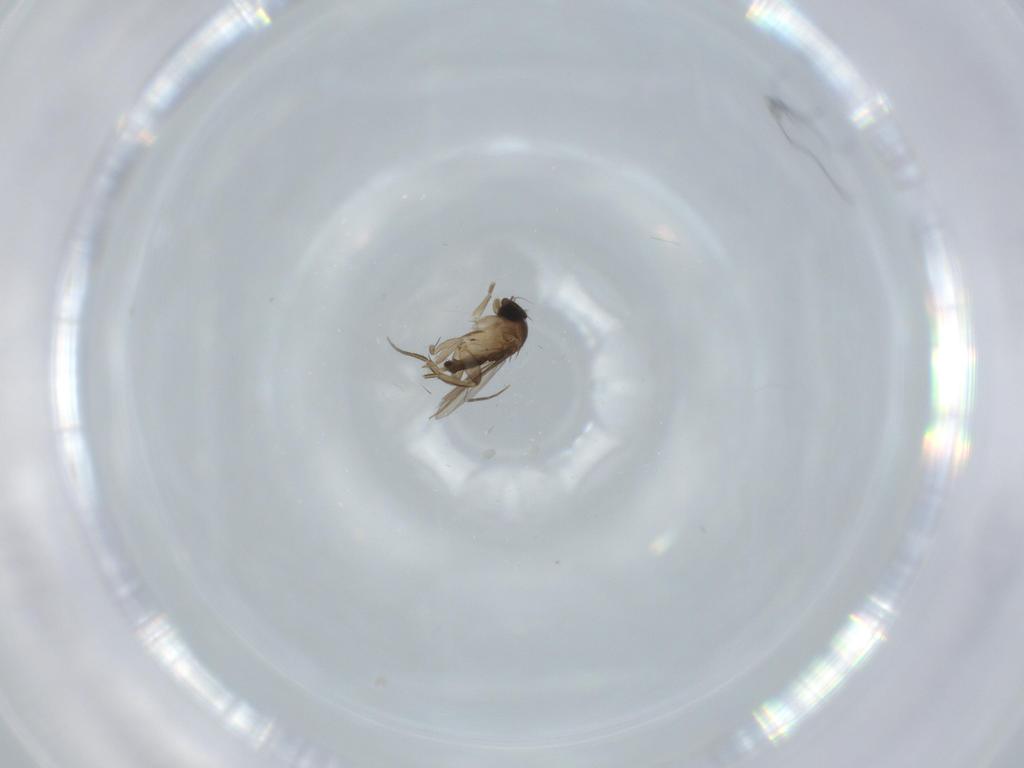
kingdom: Animalia
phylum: Arthropoda
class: Insecta
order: Diptera
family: Phoridae
